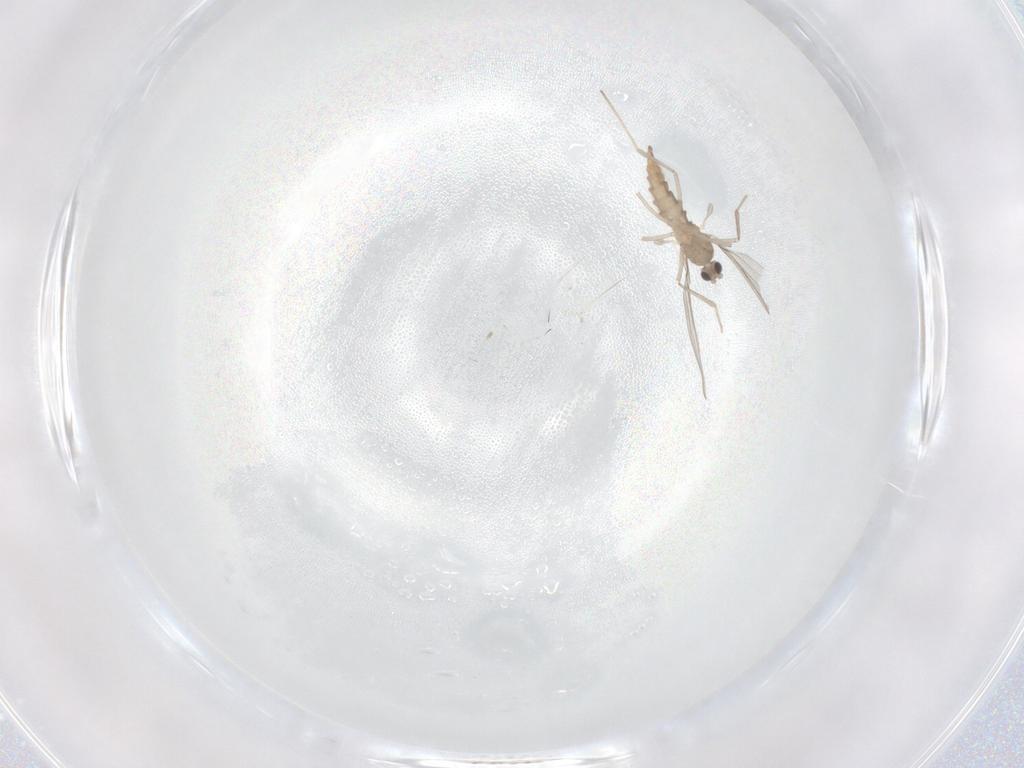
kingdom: Animalia
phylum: Arthropoda
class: Insecta
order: Diptera
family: Cecidomyiidae
